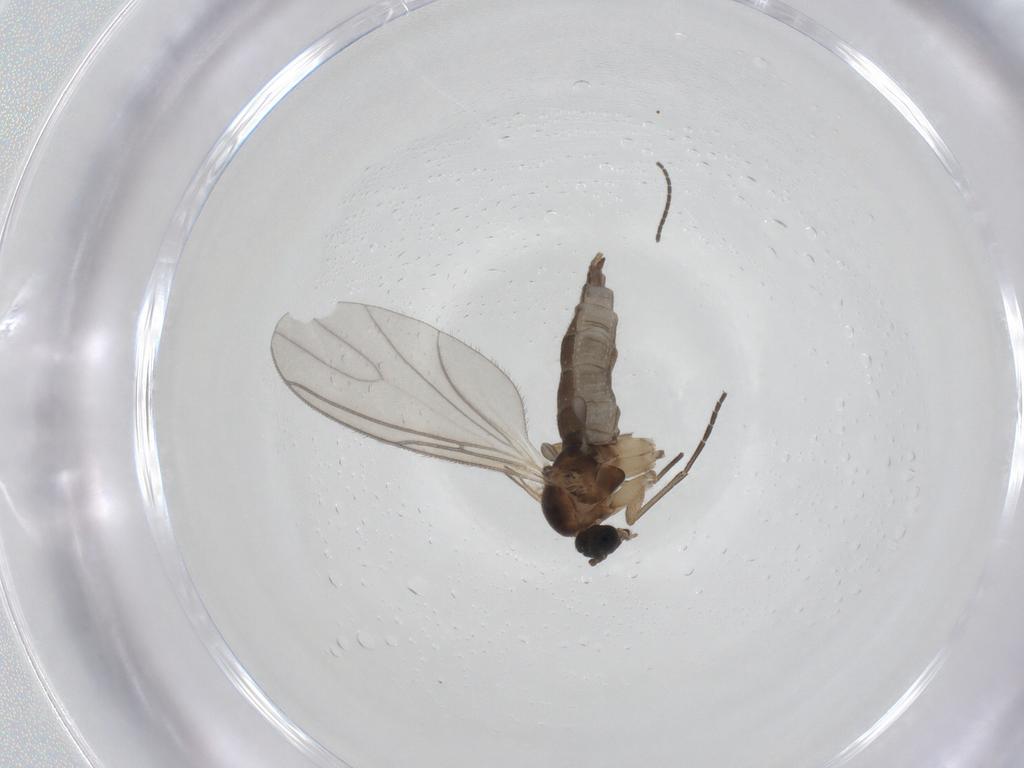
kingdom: Animalia
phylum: Arthropoda
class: Insecta
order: Diptera
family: Sciaridae
